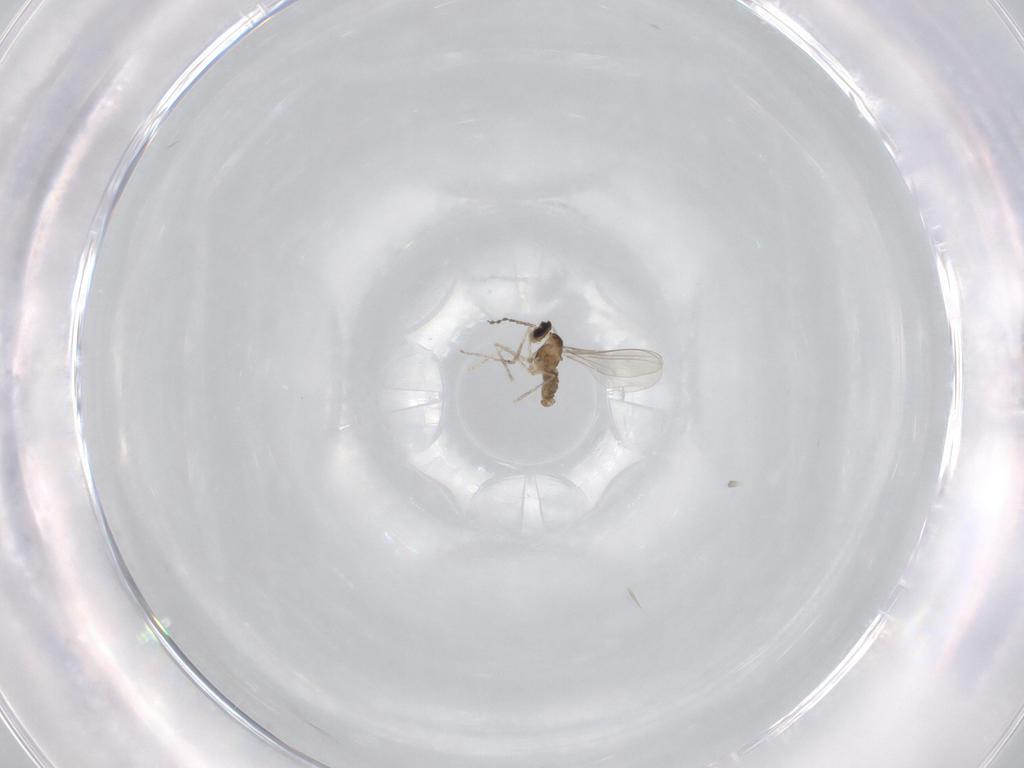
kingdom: Animalia
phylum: Arthropoda
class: Insecta
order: Diptera
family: Cecidomyiidae
